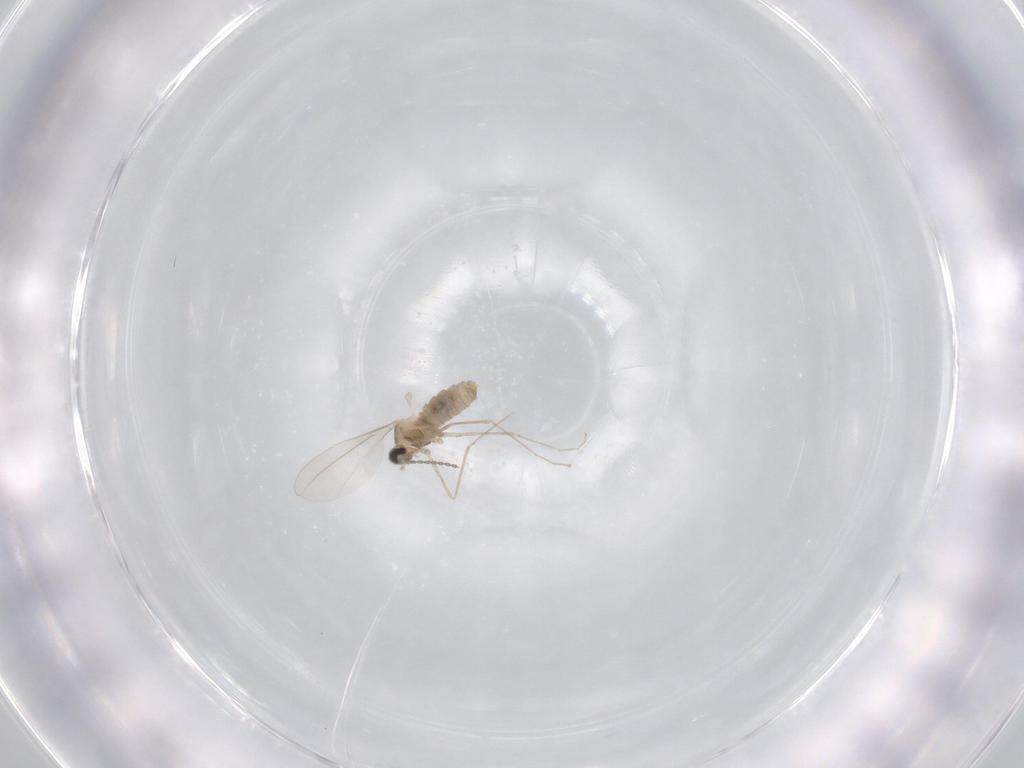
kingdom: Animalia
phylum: Arthropoda
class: Insecta
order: Diptera
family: Cecidomyiidae
